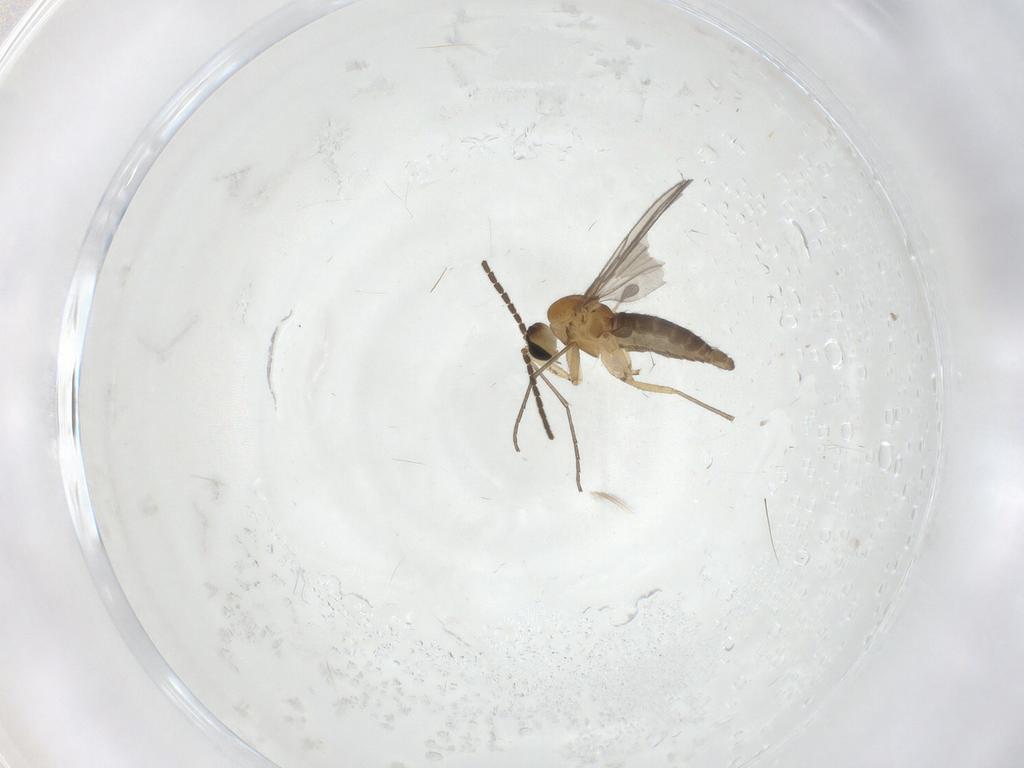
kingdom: Animalia
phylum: Arthropoda
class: Insecta
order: Diptera
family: Sciaridae
